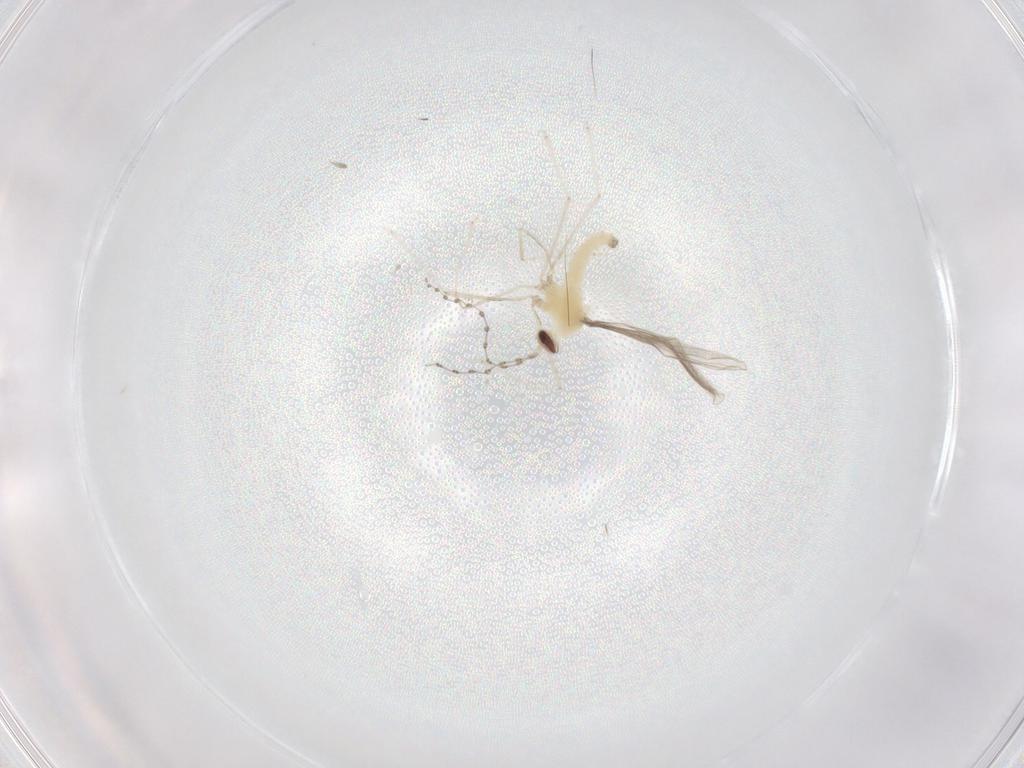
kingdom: Animalia
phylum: Arthropoda
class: Insecta
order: Diptera
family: Cecidomyiidae
